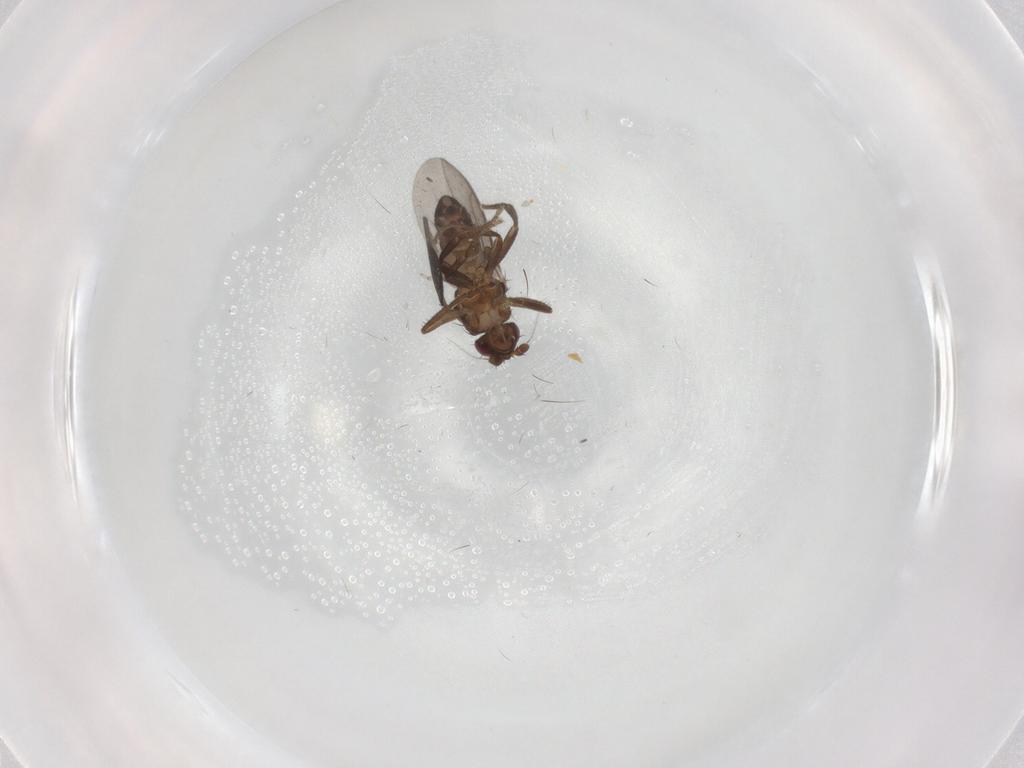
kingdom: Animalia
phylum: Arthropoda
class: Insecta
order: Diptera
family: Sphaeroceridae
